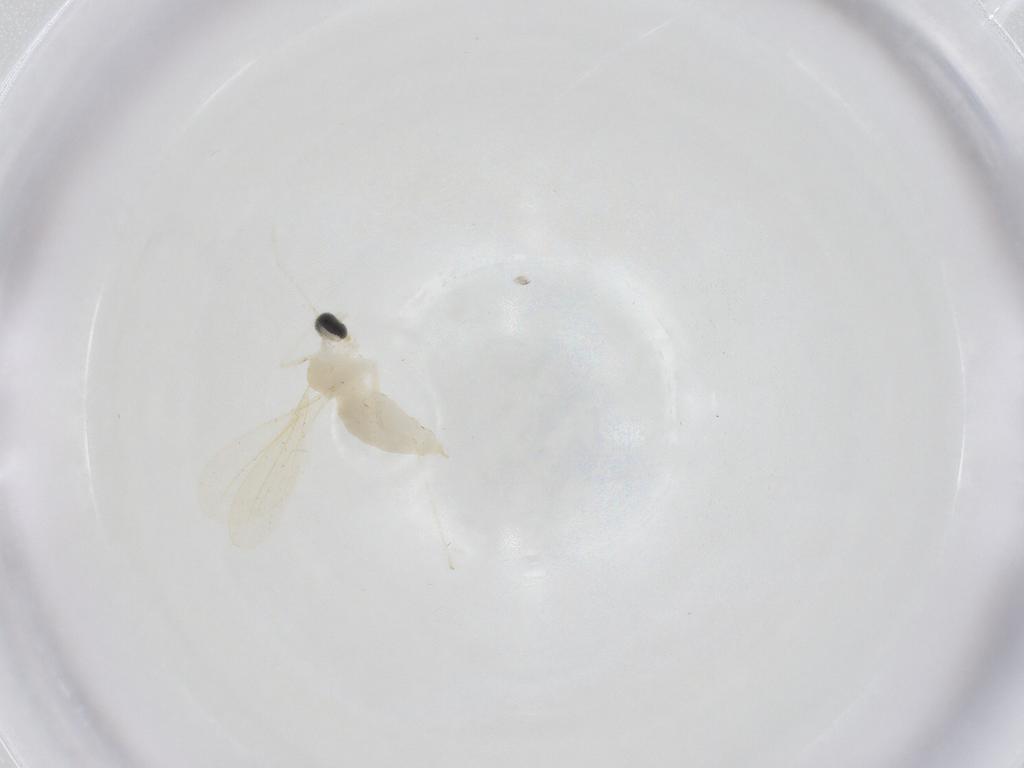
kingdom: Animalia
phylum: Arthropoda
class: Insecta
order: Diptera
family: Cecidomyiidae
